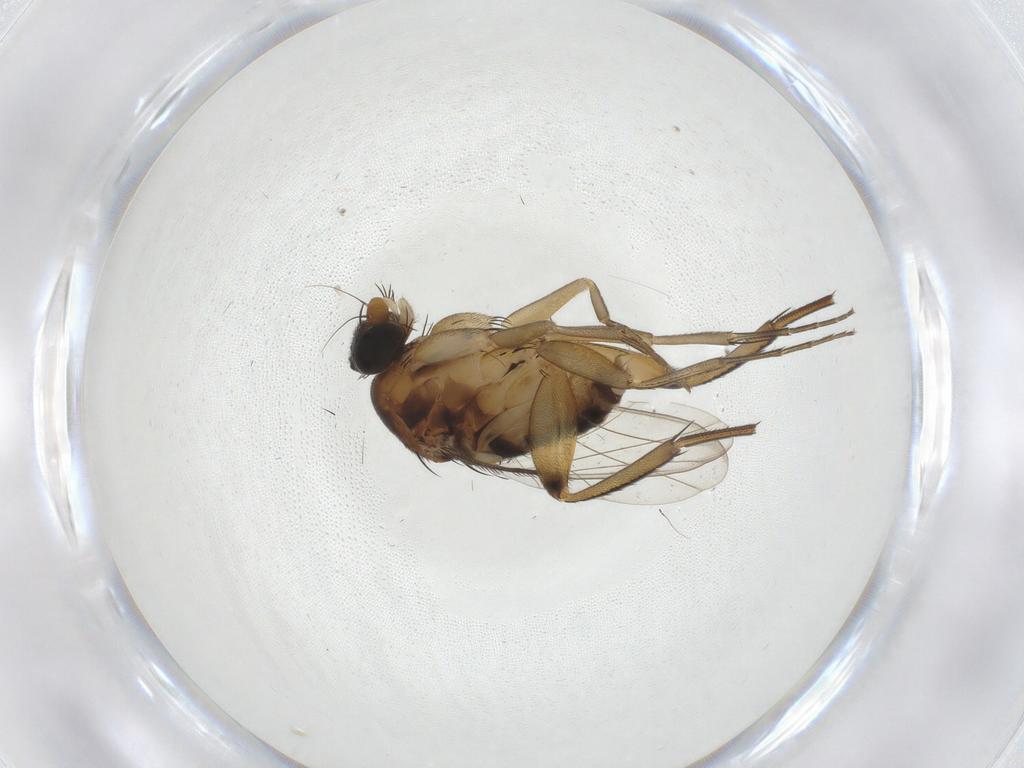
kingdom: Animalia
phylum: Arthropoda
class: Insecta
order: Diptera
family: Phoridae
